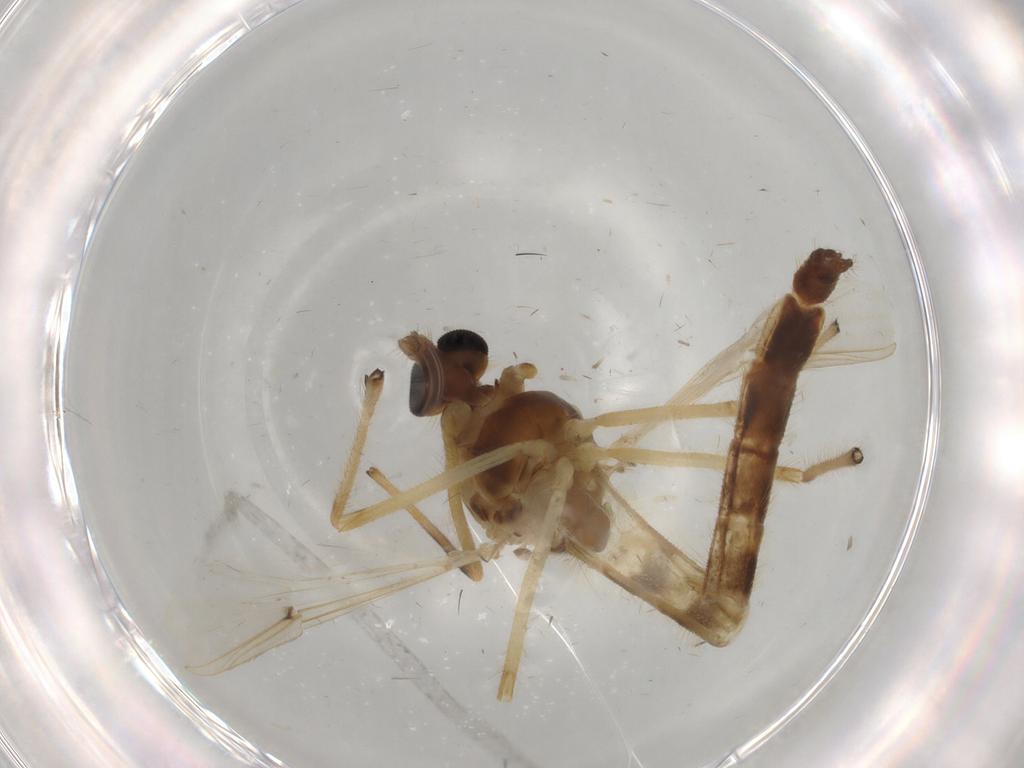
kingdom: Animalia
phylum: Arthropoda
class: Insecta
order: Diptera
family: Chironomidae
